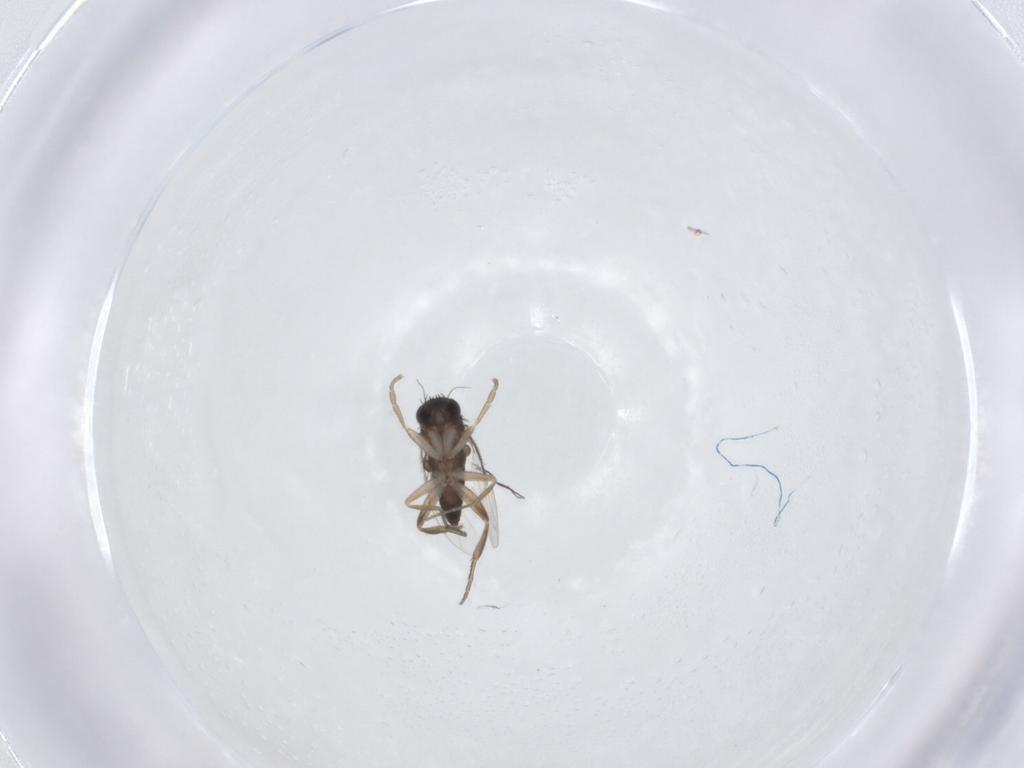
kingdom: Animalia
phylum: Arthropoda
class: Insecta
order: Diptera
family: Phoridae
